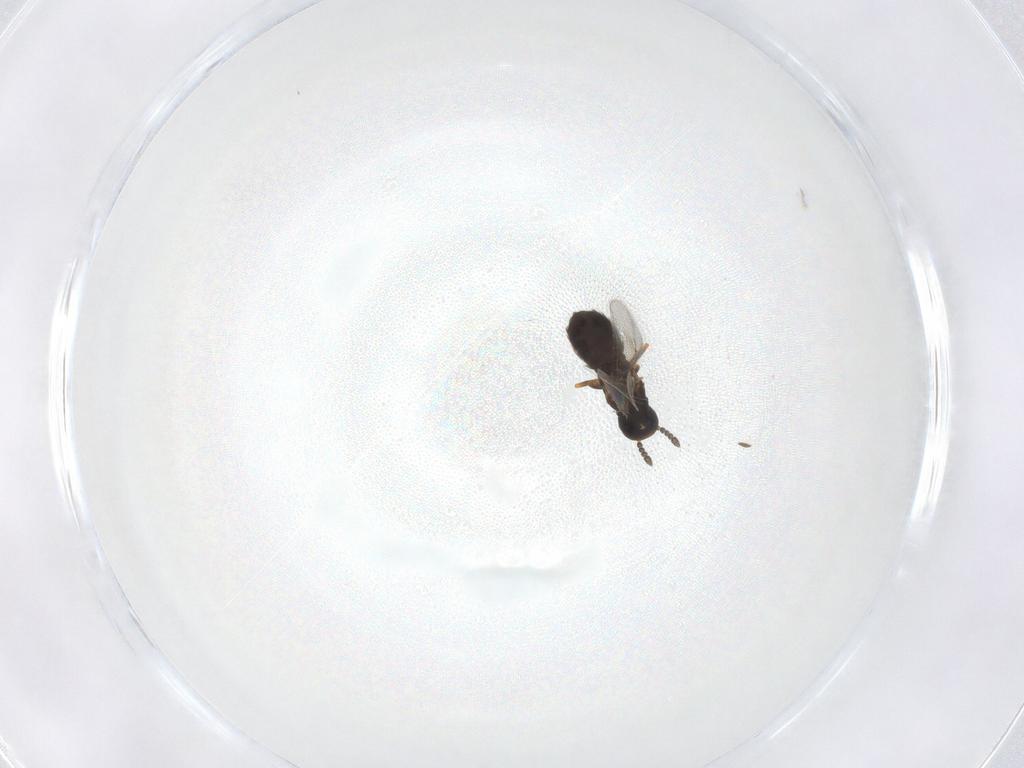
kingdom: Animalia
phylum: Arthropoda
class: Insecta
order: Hymenoptera
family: Eulophidae
